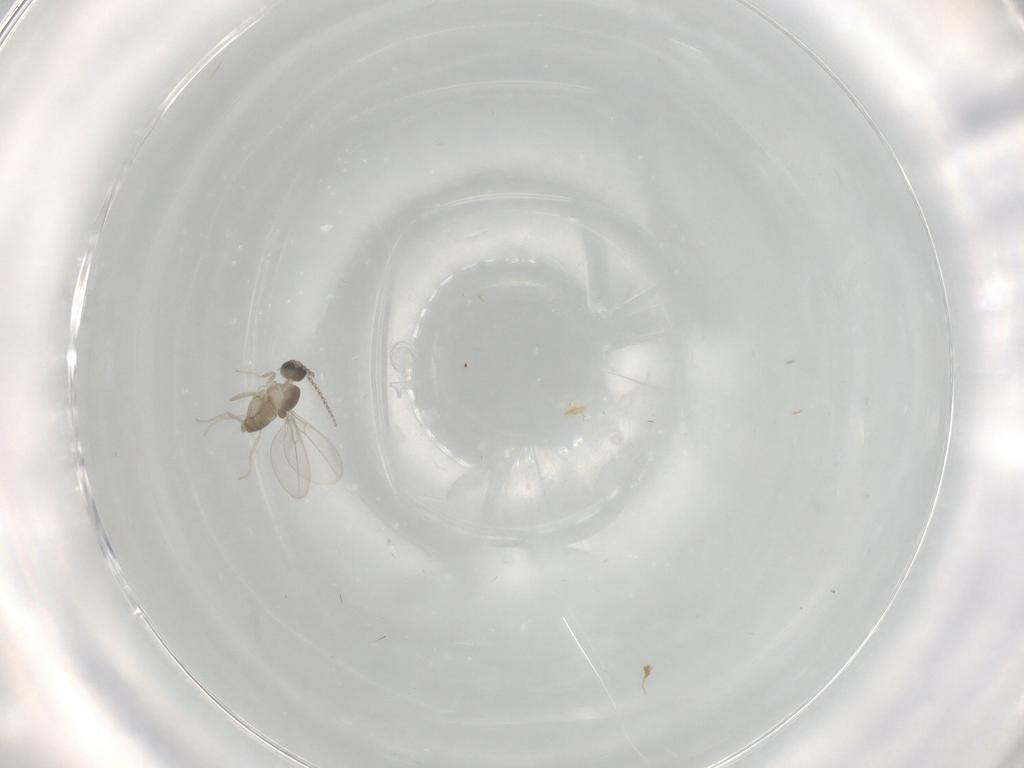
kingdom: Animalia
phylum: Arthropoda
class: Insecta
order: Diptera
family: Cecidomyiidae
